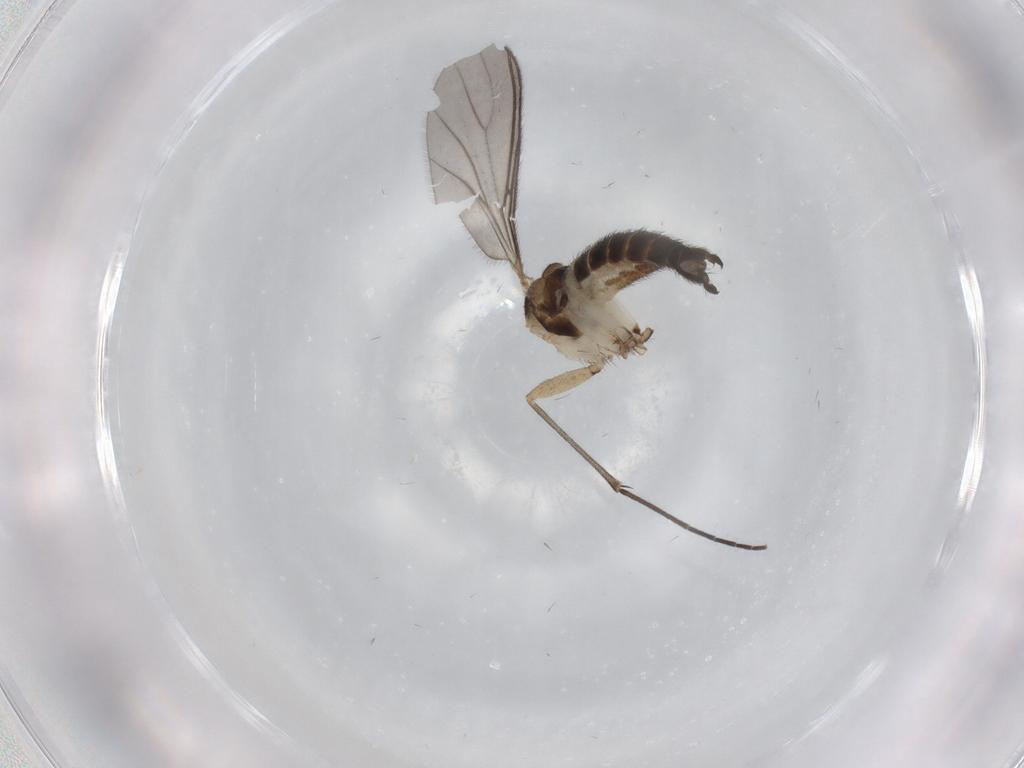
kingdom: Animalia
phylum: Arthropoda
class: Insecta
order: Diptera
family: Sciaridae
